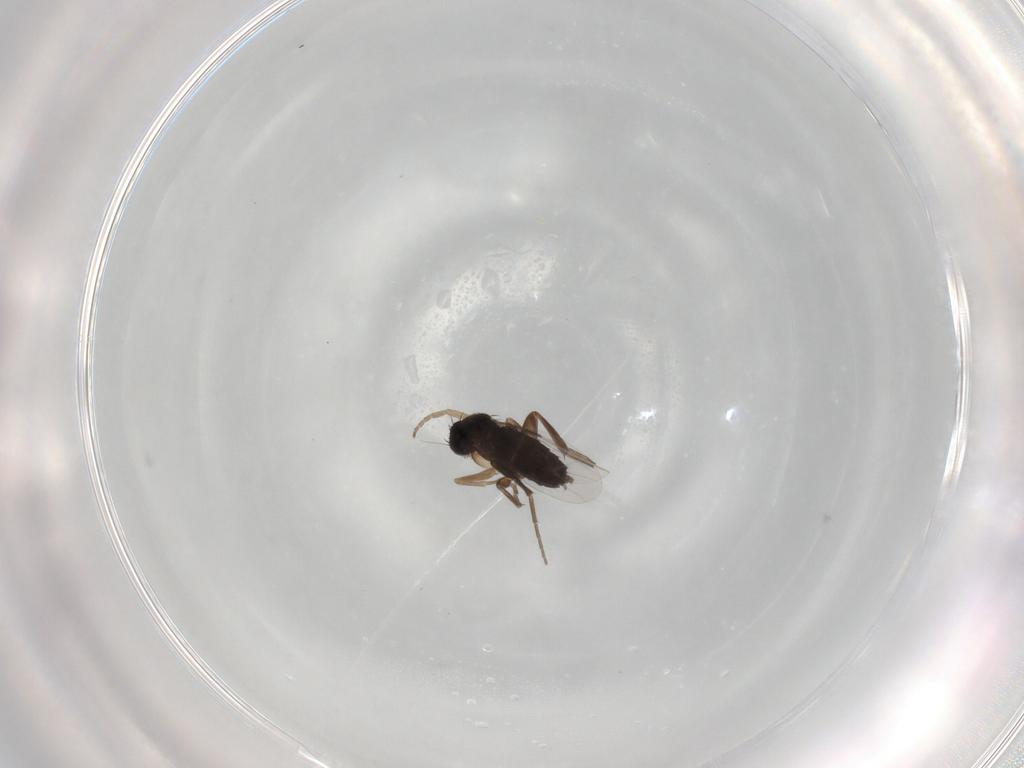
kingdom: Animalia
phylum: Arthropoda
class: Insecta
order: Diptera
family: Phoridae
